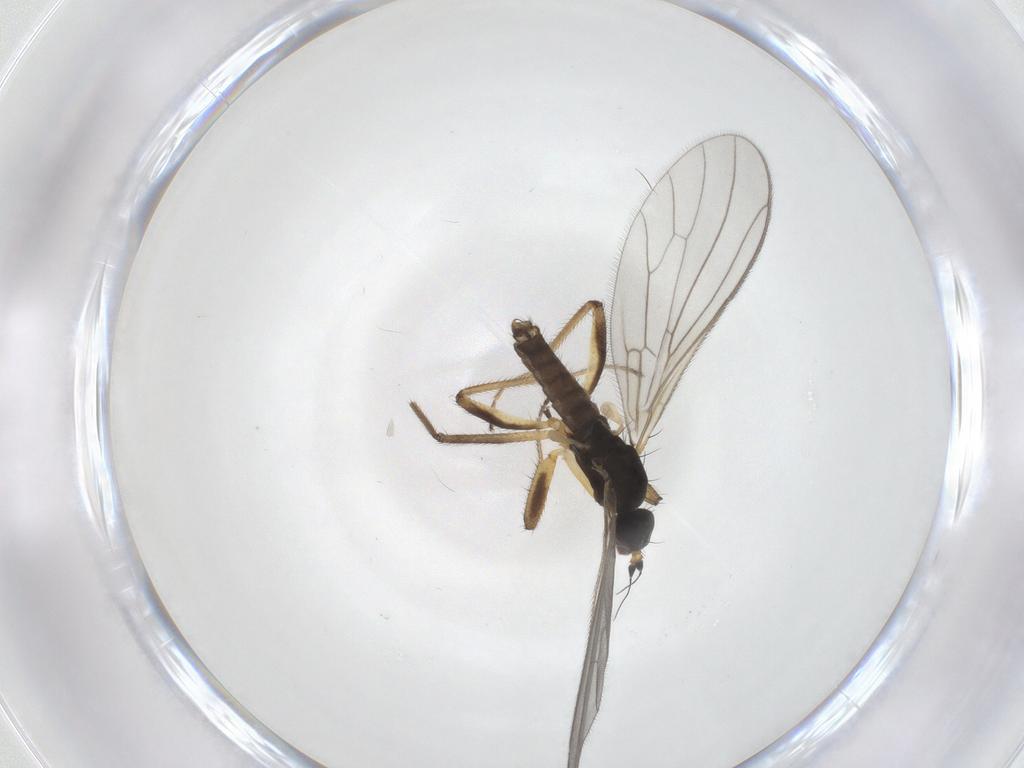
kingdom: Animalia
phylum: Arthropoda
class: Insecta
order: Diptera
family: Empididae
